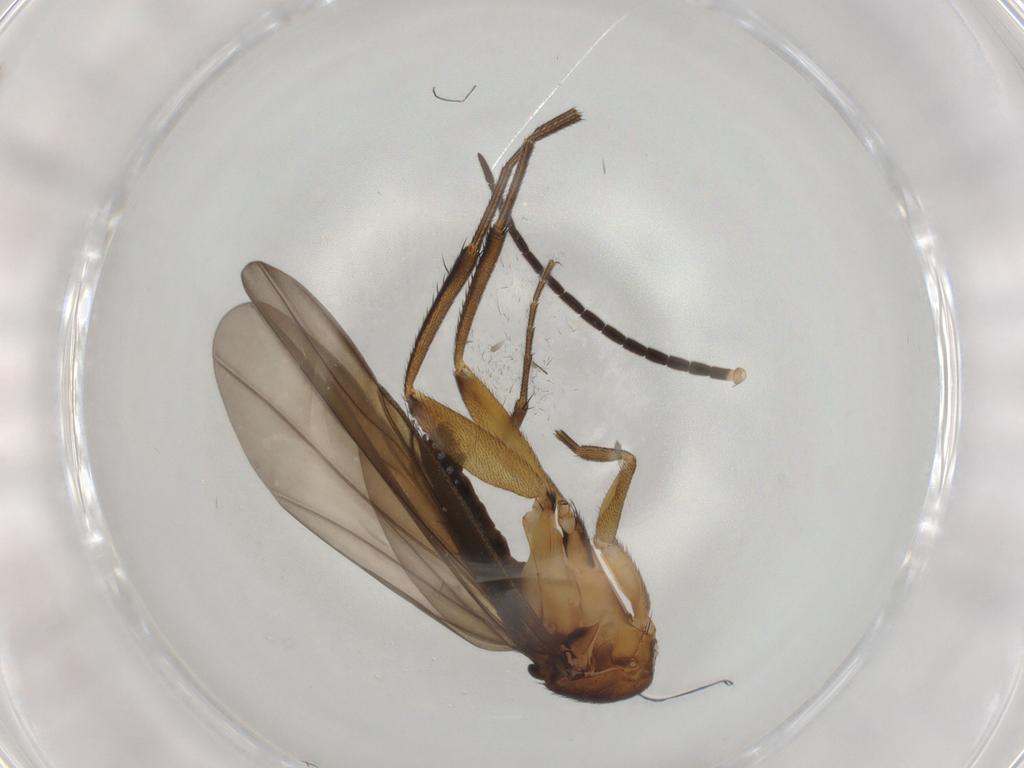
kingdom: Animalia
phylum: Arthropoda
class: Insecta
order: Diptera
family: Phoridae
